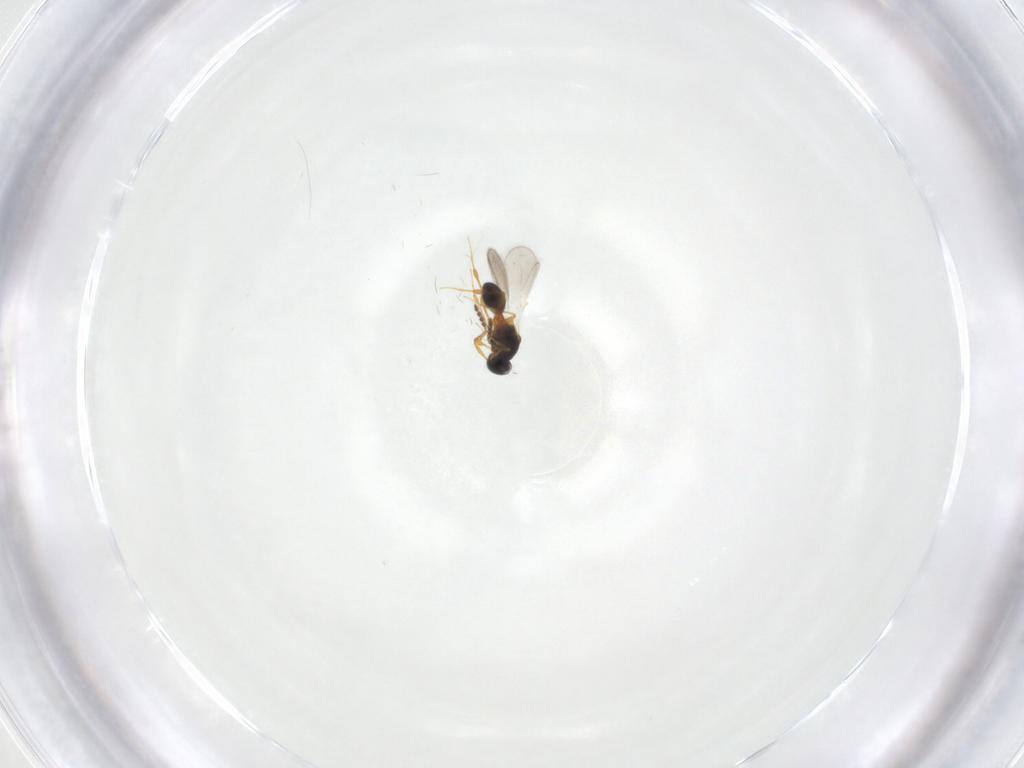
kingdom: Animalia
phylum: Arthropoda
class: Insecta
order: Hymenoptera
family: Platygastridae
